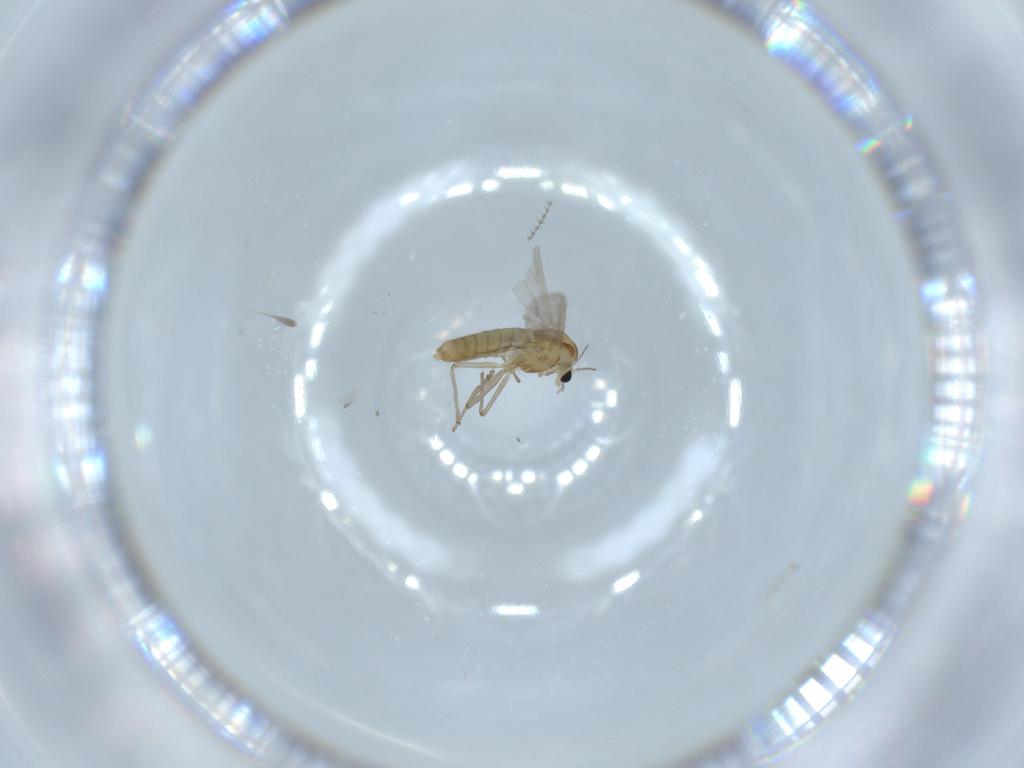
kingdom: Animalia
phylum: Arthropoda
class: Insecta
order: Diptera
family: Chironomidae
